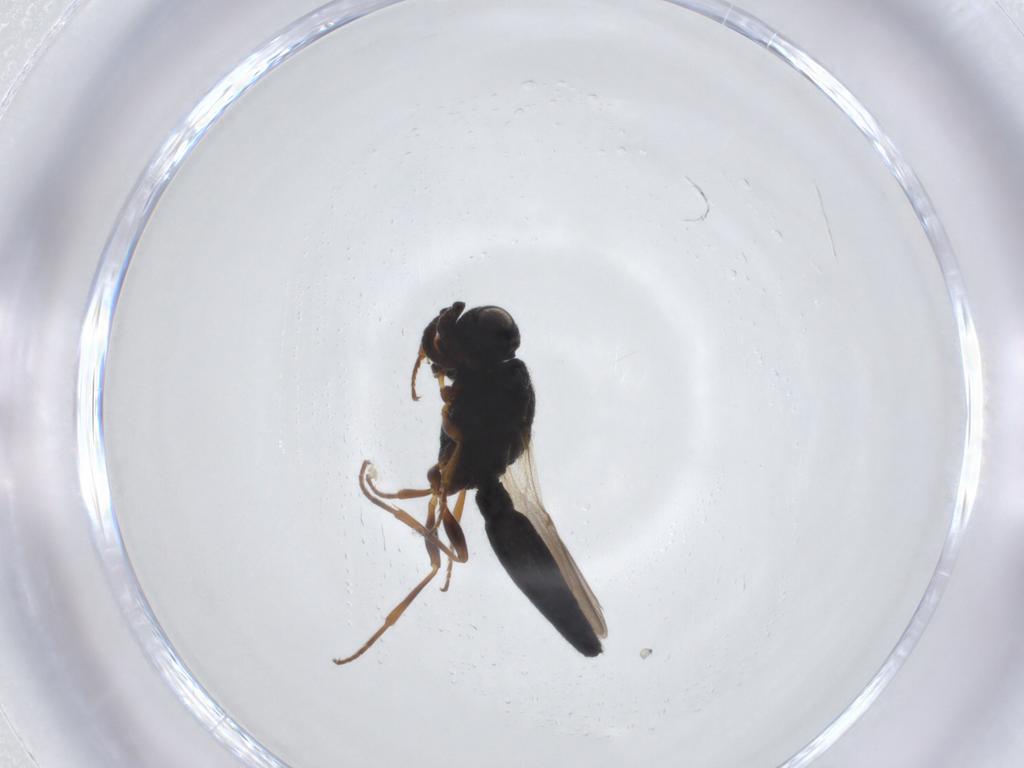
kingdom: Animalia
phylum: Arthropoda
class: Insecta
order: Hymenoptera
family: Scelionidae
